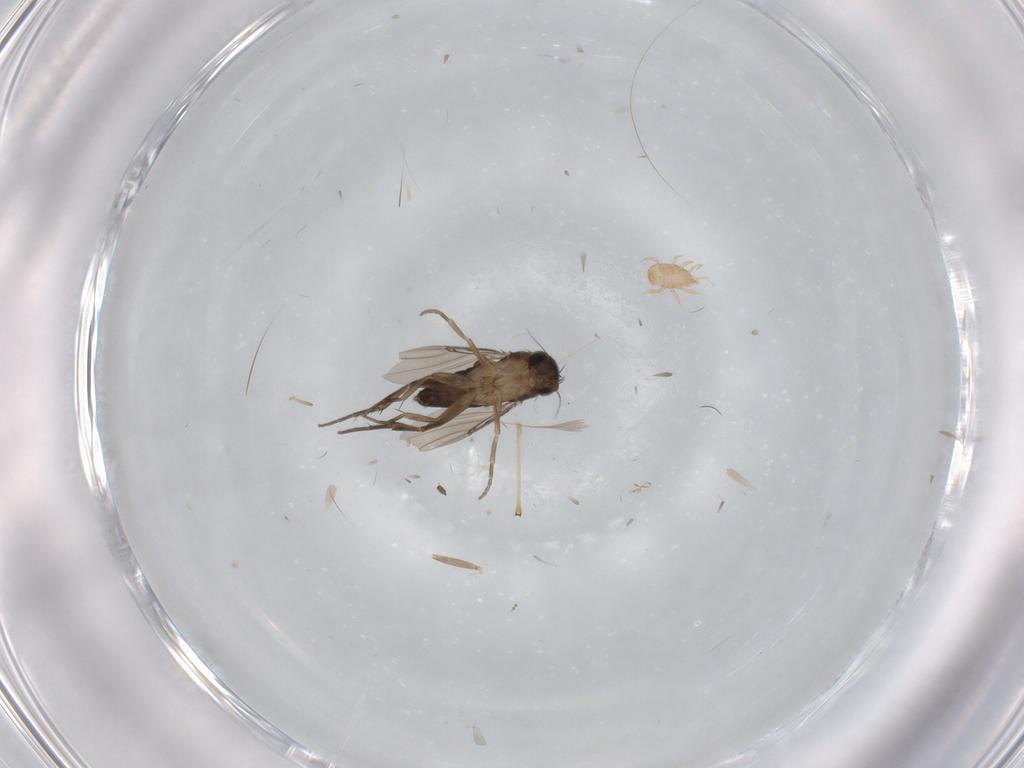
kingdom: Animalia
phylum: Arthropoda
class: Insecta
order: Diptera
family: Phoridae
